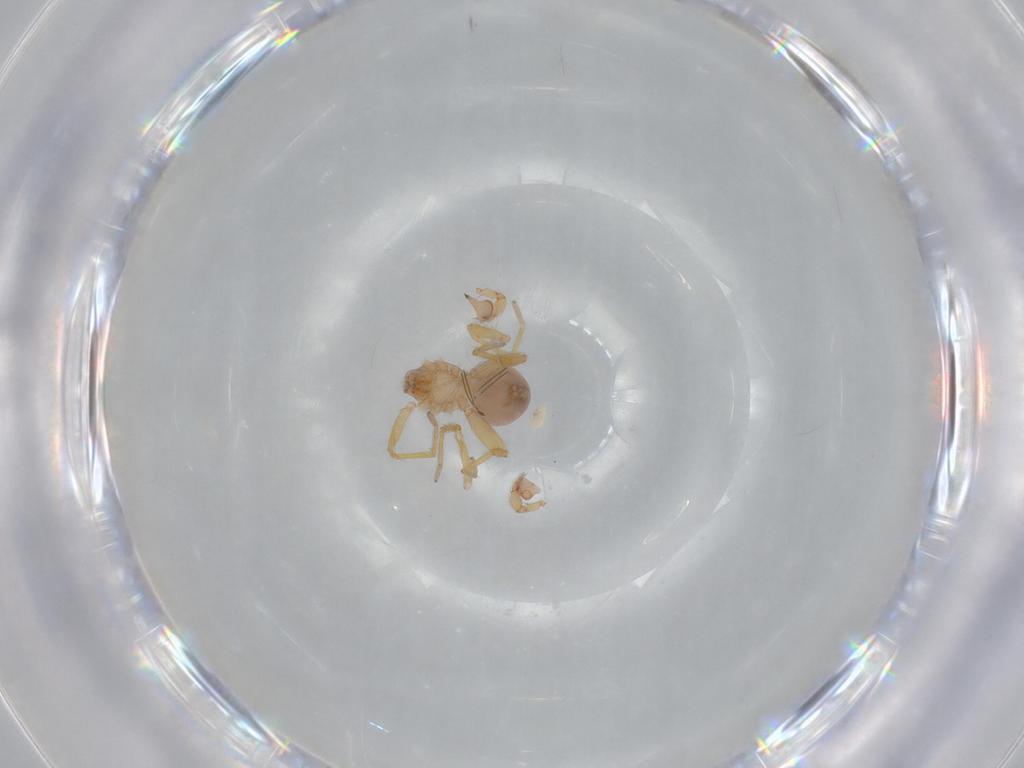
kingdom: Animalia
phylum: Arthropoda
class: Arachnida
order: Araneae
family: Oonopidae
